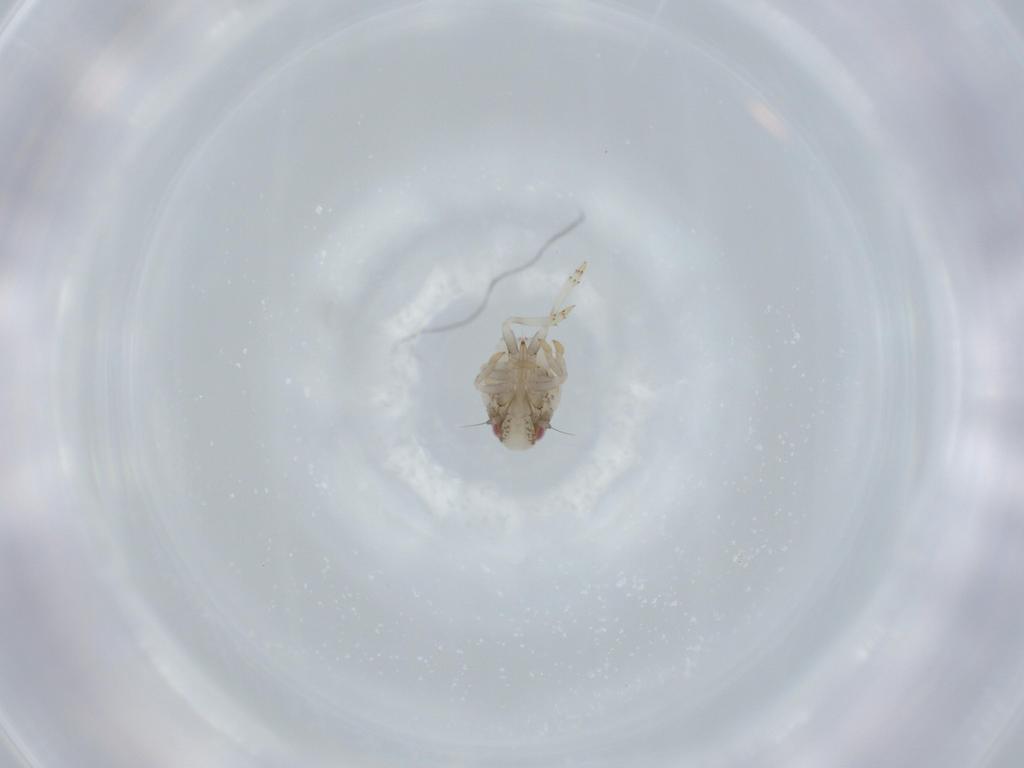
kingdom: Animalia
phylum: Arthropoda
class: Insecta
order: Hemiptera
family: Acanaloniidae
